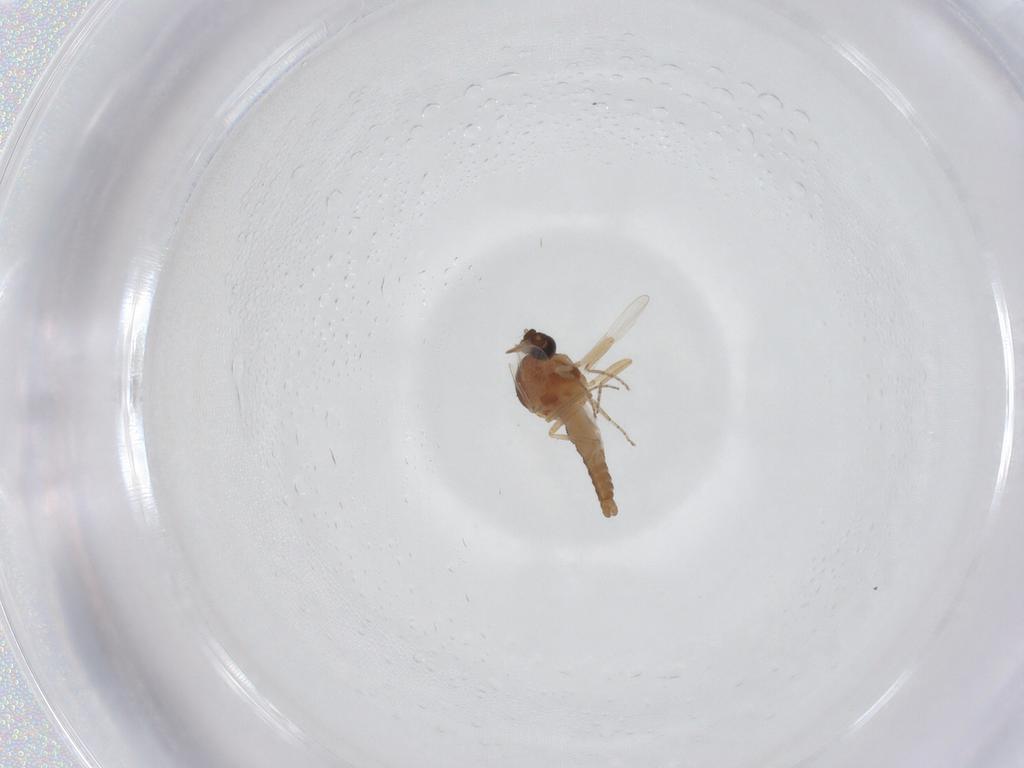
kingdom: Animalia
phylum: Arthropoda
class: Insecta
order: Diptera
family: Ceratopogonidae
